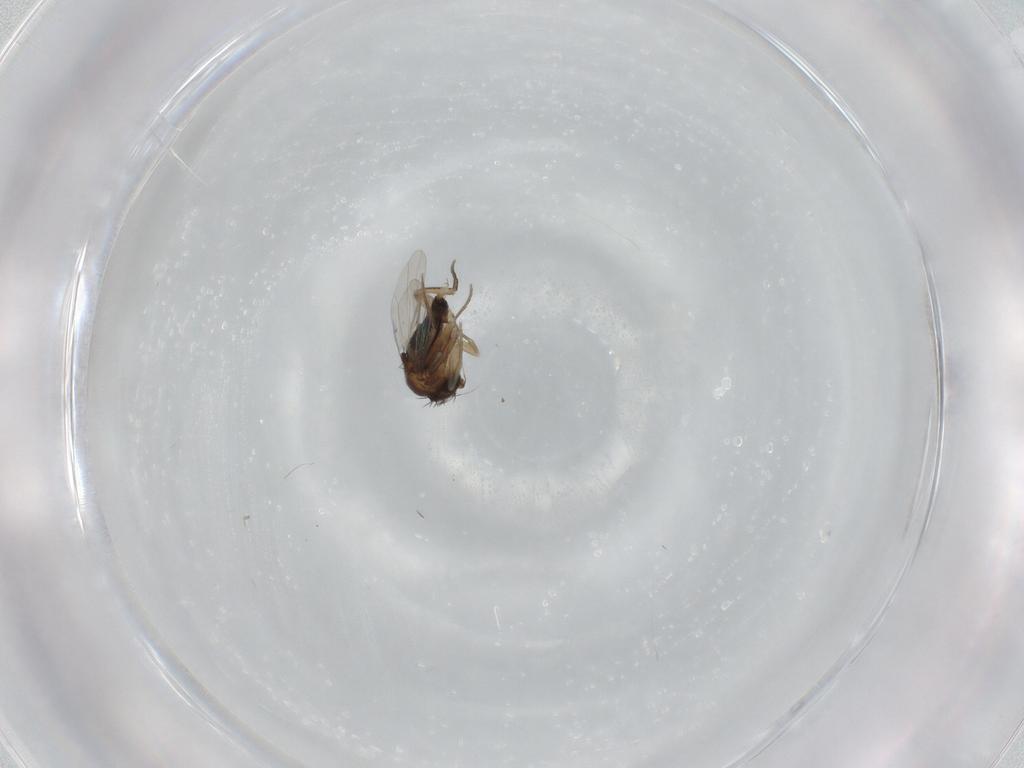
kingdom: Animalia
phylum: Arthropoda
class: Insecta
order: Diptera
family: Phoridae
